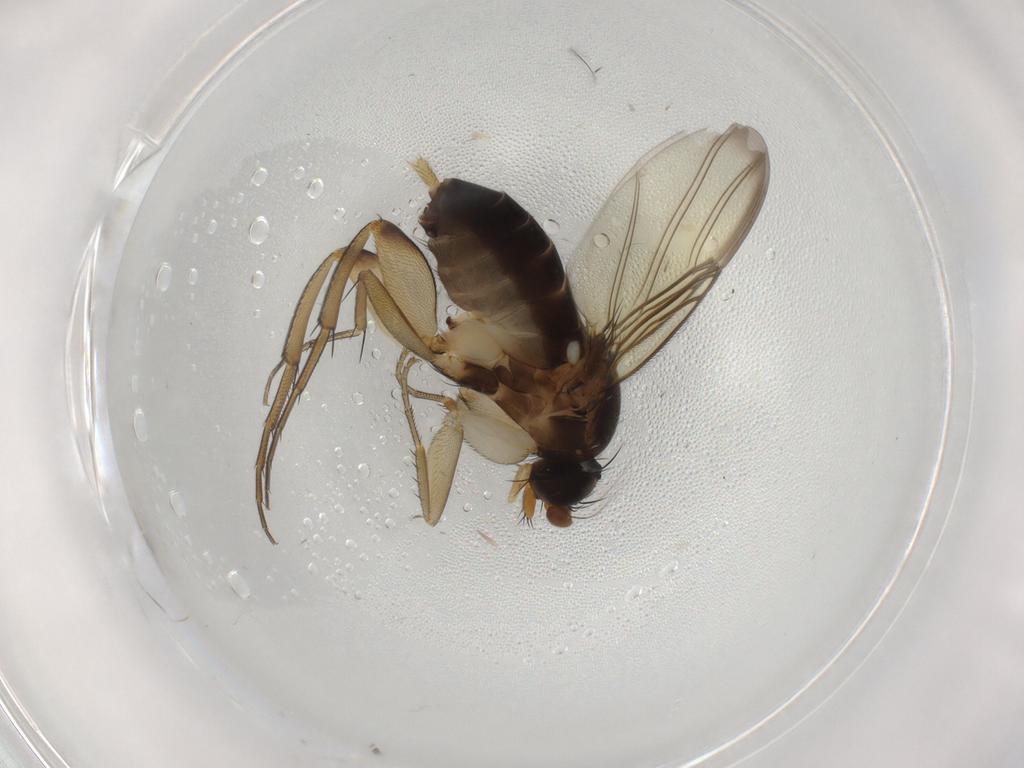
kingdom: Animalia
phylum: Arthropoda
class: Insecta
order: Diptera
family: Phoridae
